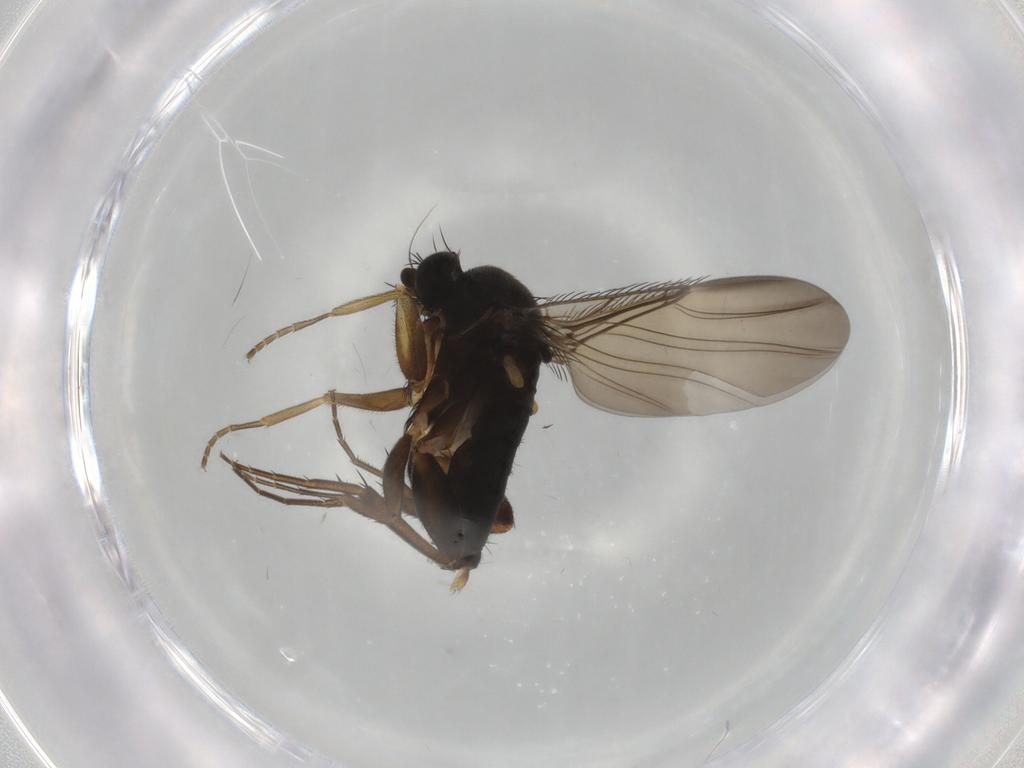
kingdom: Animalia
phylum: Arthropoda
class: Insecta
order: Diptera
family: Phoridae
